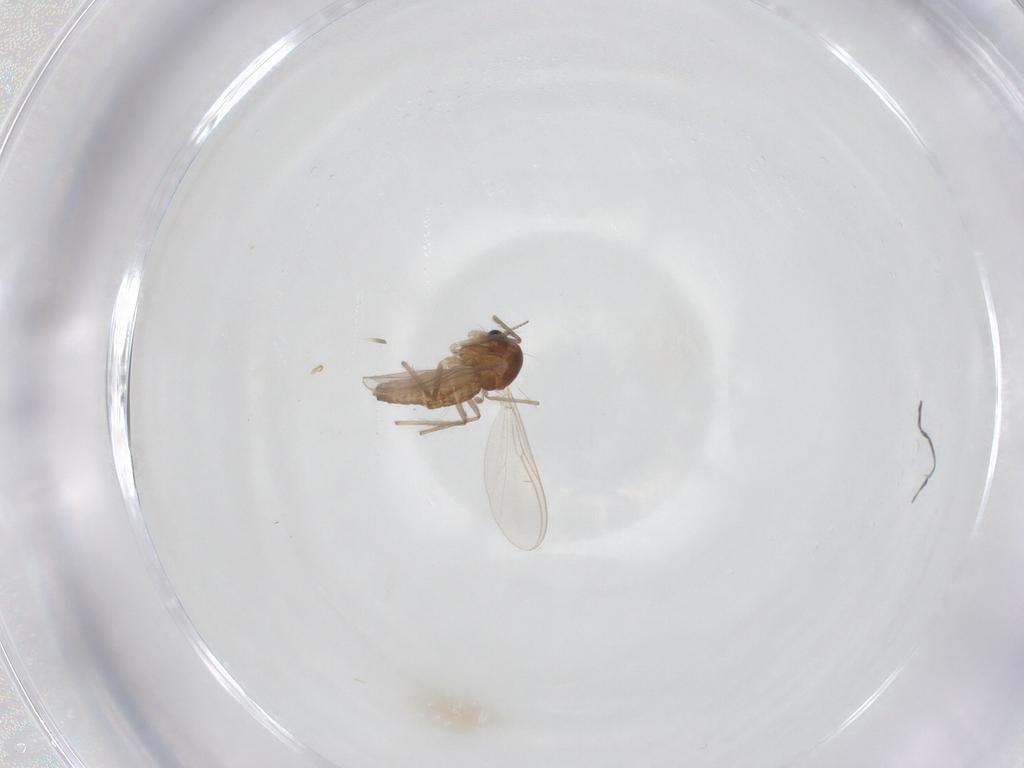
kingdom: Animalia
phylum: Arthropoda
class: Insecta
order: Diptera
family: Chironomidae
